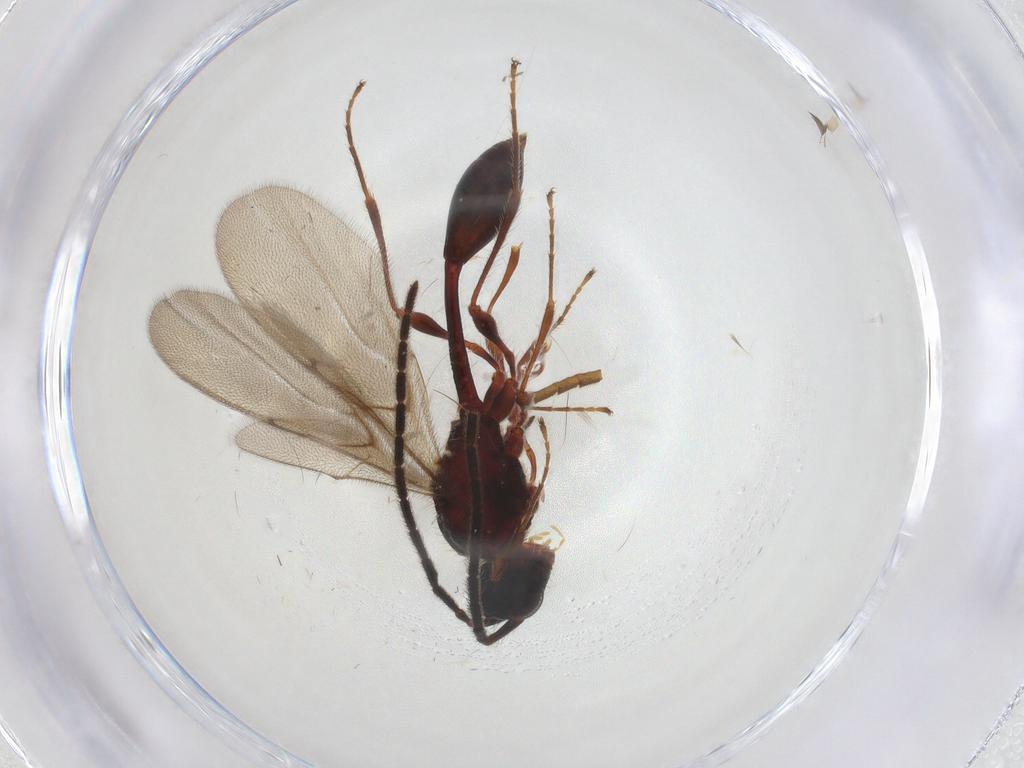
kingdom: Animalia
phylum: Arthropoda
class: Insecta
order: Hymenoptera
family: Diapriidae
